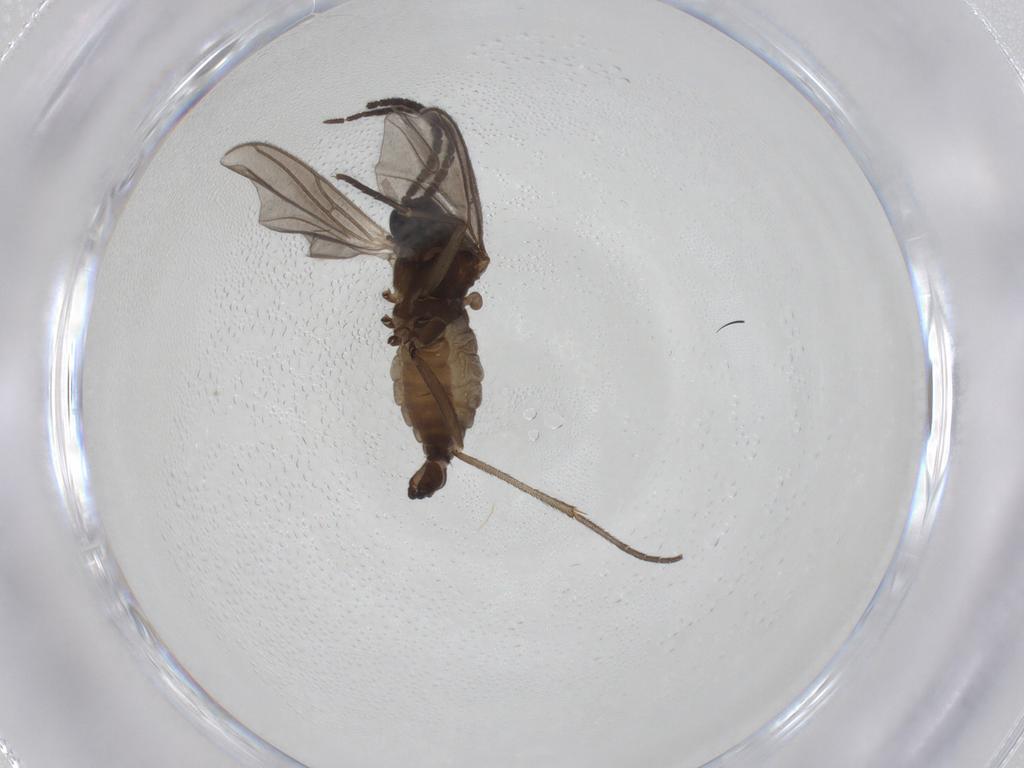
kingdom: Animalia
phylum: Arthropoda
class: Insecta
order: Diptera
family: Sciaridae
